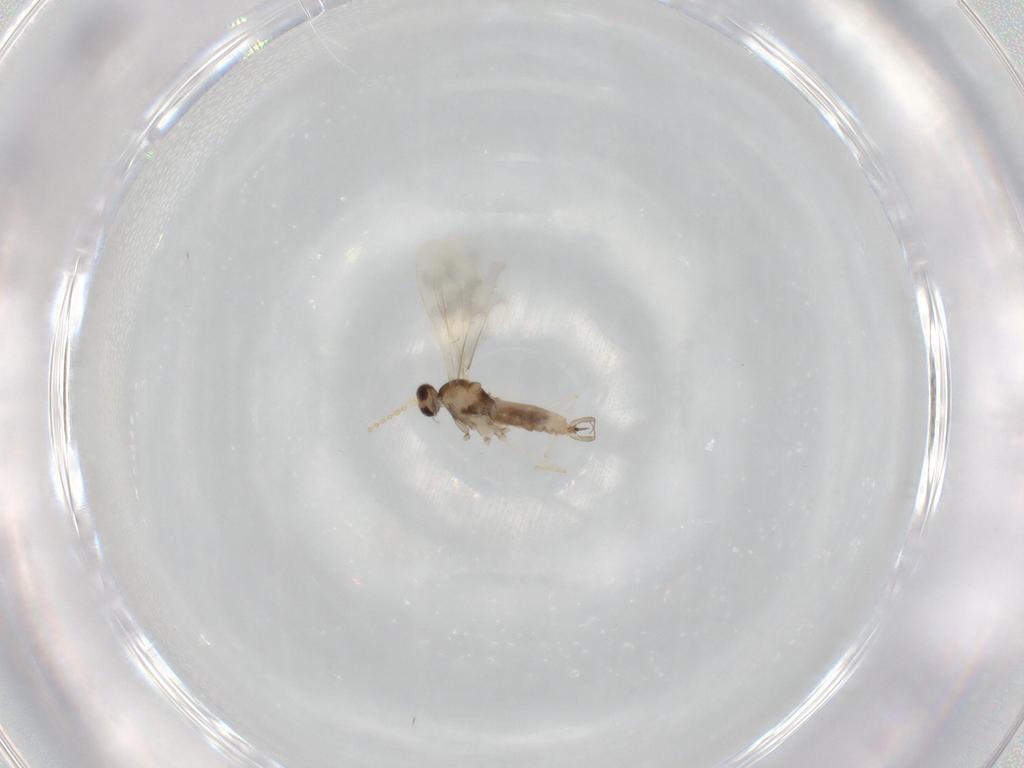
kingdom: Animalia
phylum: Arthropoda
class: Insecta
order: Diptera
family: Cecidomyiidae
